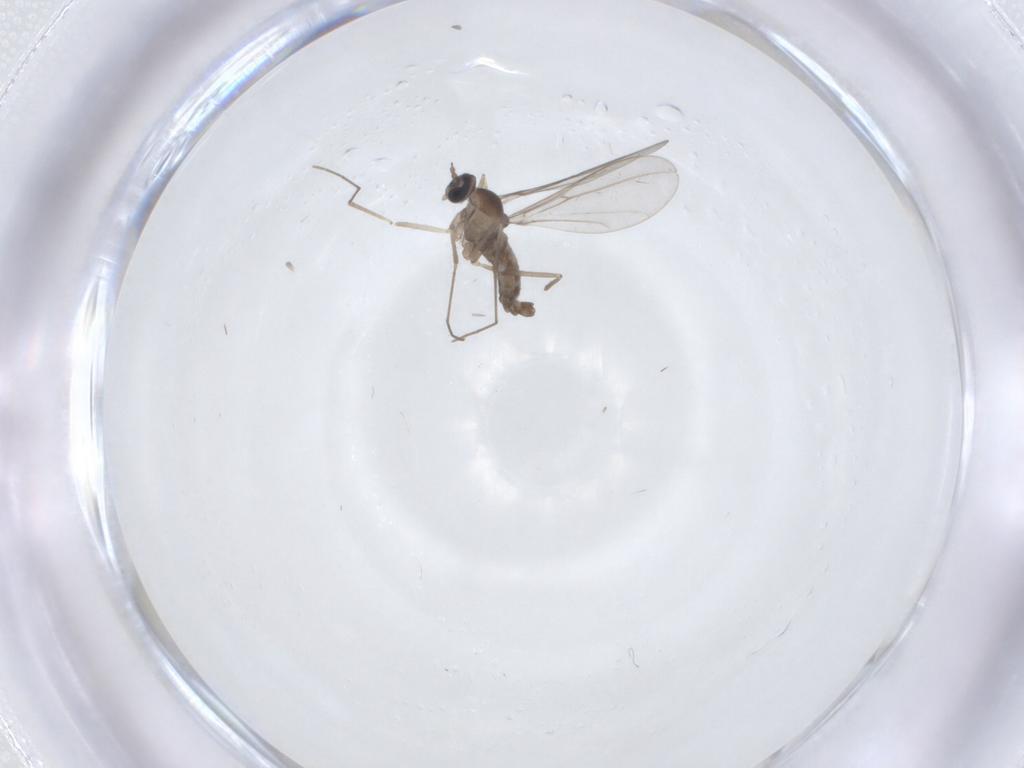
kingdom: Animalia
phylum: Arthropoda
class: Insecta
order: Diptera
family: Cecidomyiidae
